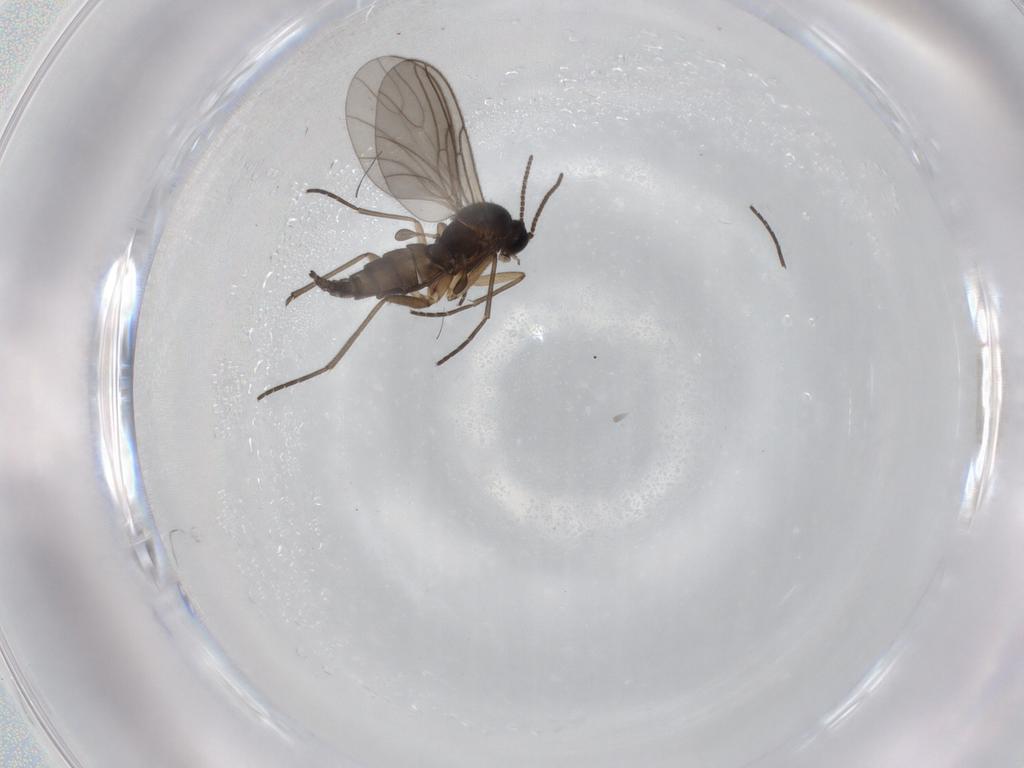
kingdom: Animalia
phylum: Arthropoda
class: Insecta
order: Diptera
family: Sciaridae
